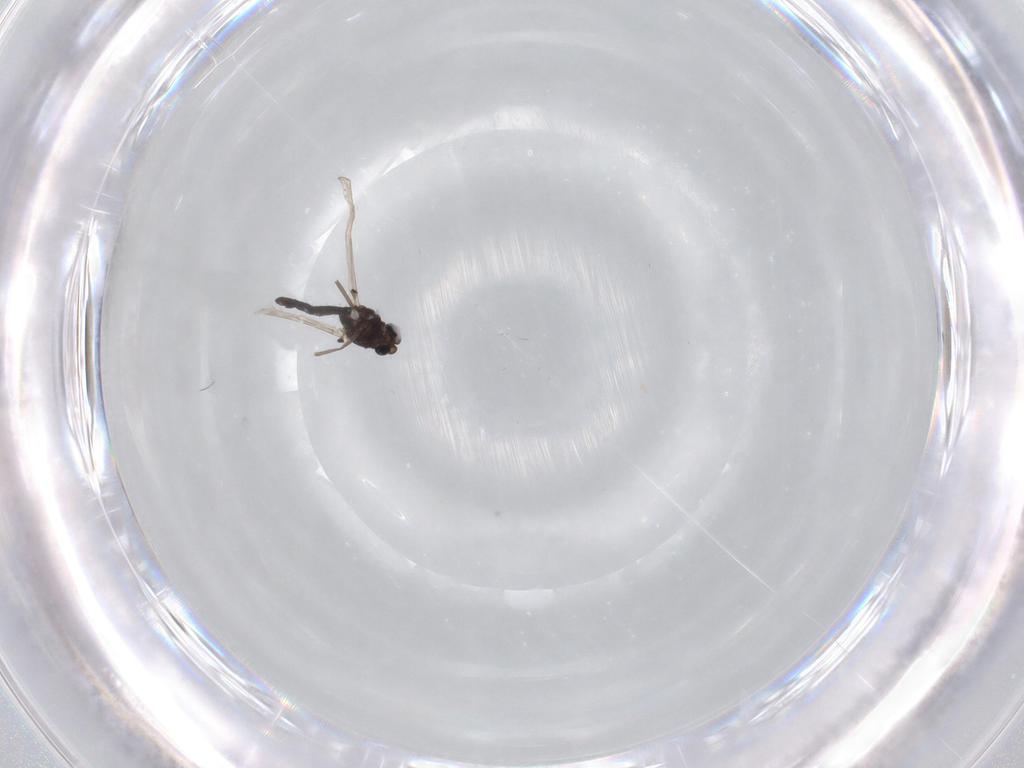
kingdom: Animalia
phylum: Arthropoda
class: Insecta
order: Diptera
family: Chironomidae
